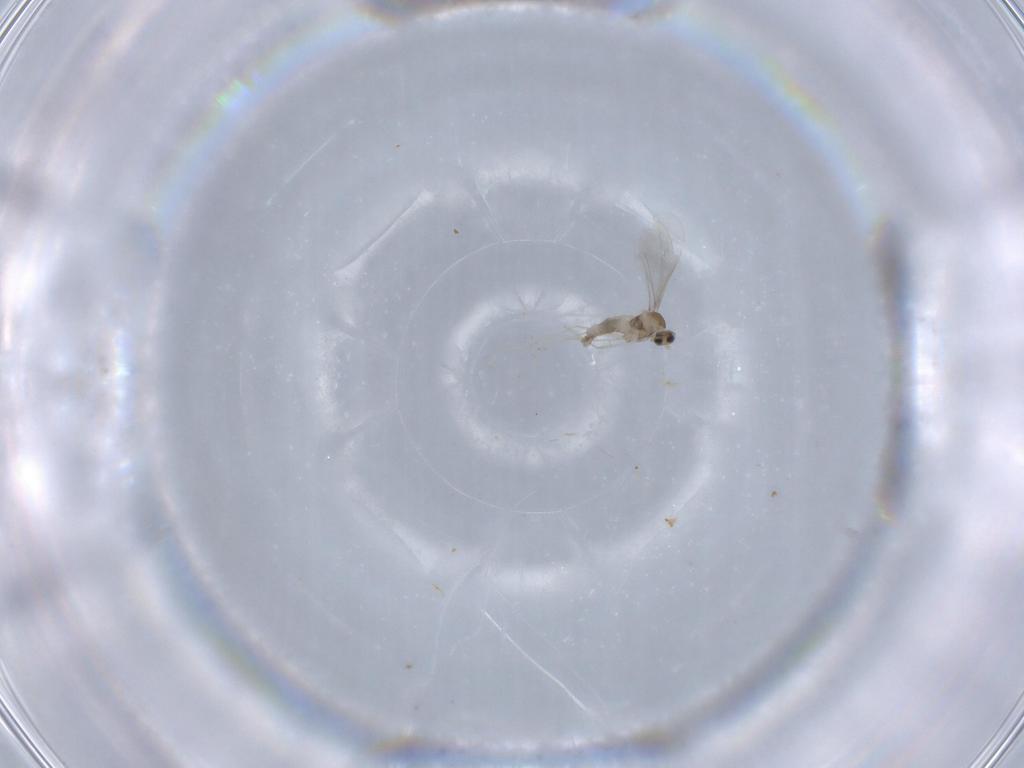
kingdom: Animalia
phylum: Arthropoda
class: Insecta
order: Diptera
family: Cecidomyiidae
